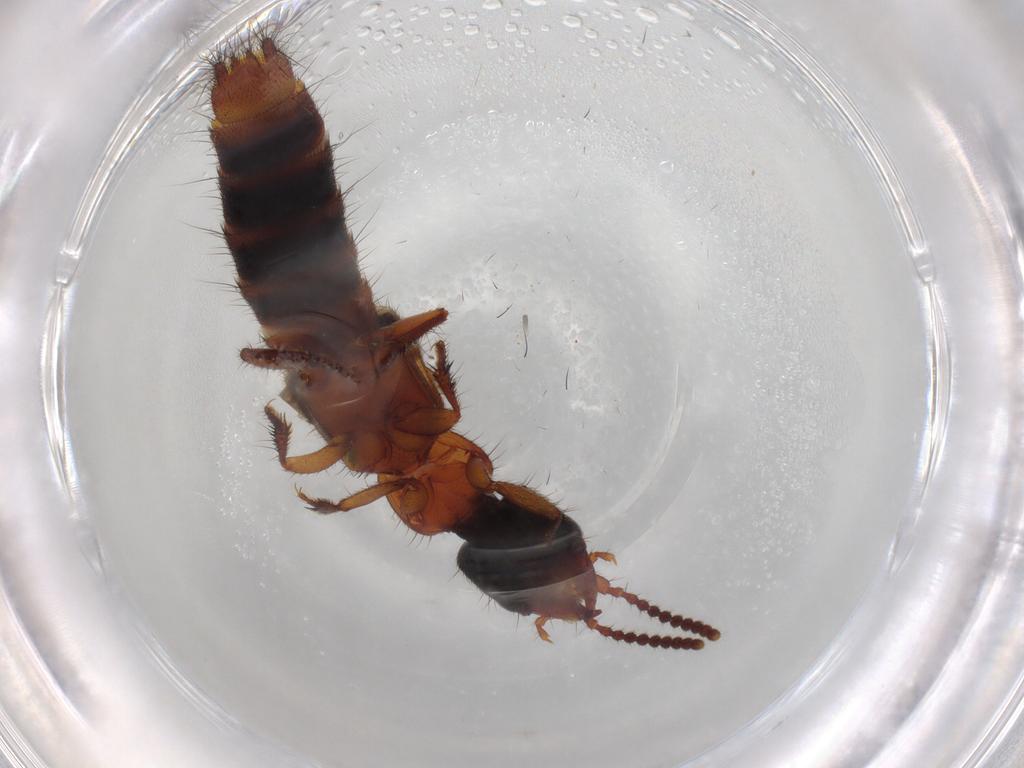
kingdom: Animalia
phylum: Arthropoda
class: Insecta
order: Coleoptera
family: Staphylinidae
